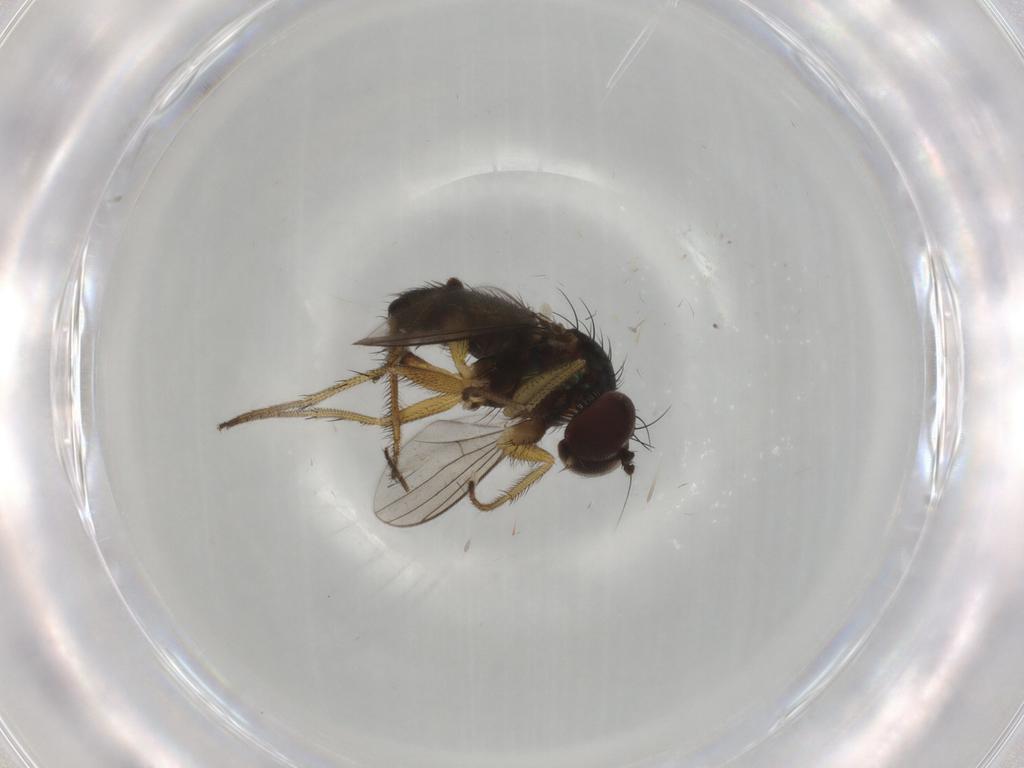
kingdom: Animalia
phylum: Arthropoda
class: Insecta
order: Diptera
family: Dolichopodidae
